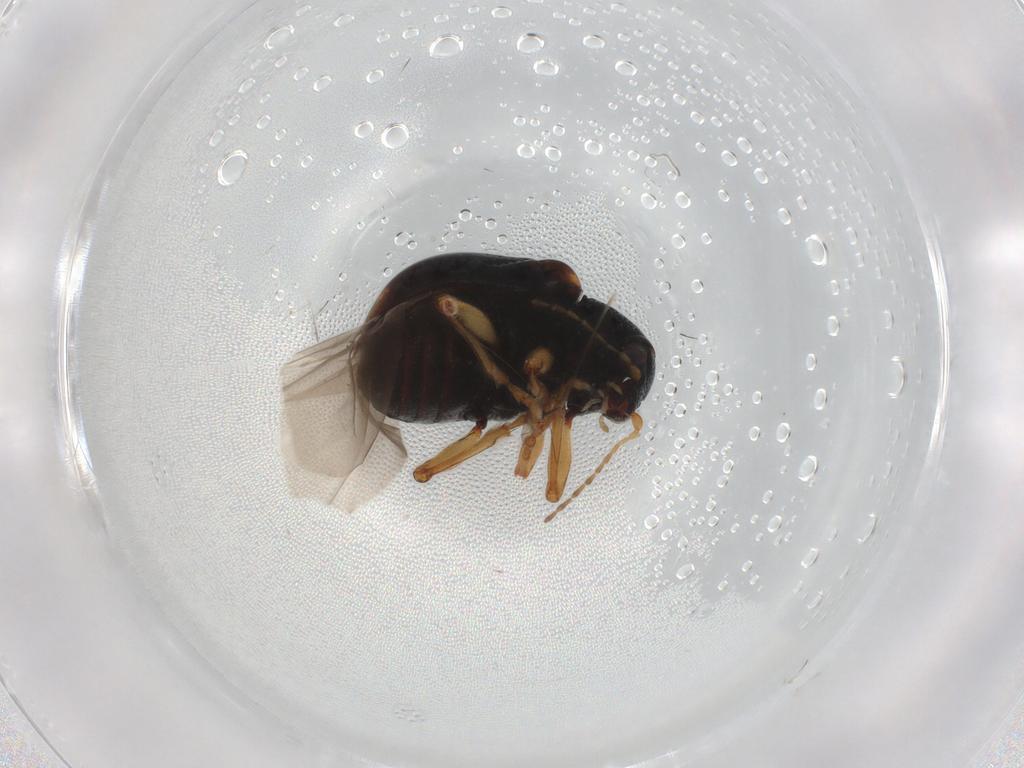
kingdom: Animalia
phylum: Arthropoda
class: Insecta
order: Coleoptera
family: Chrysomelidae
